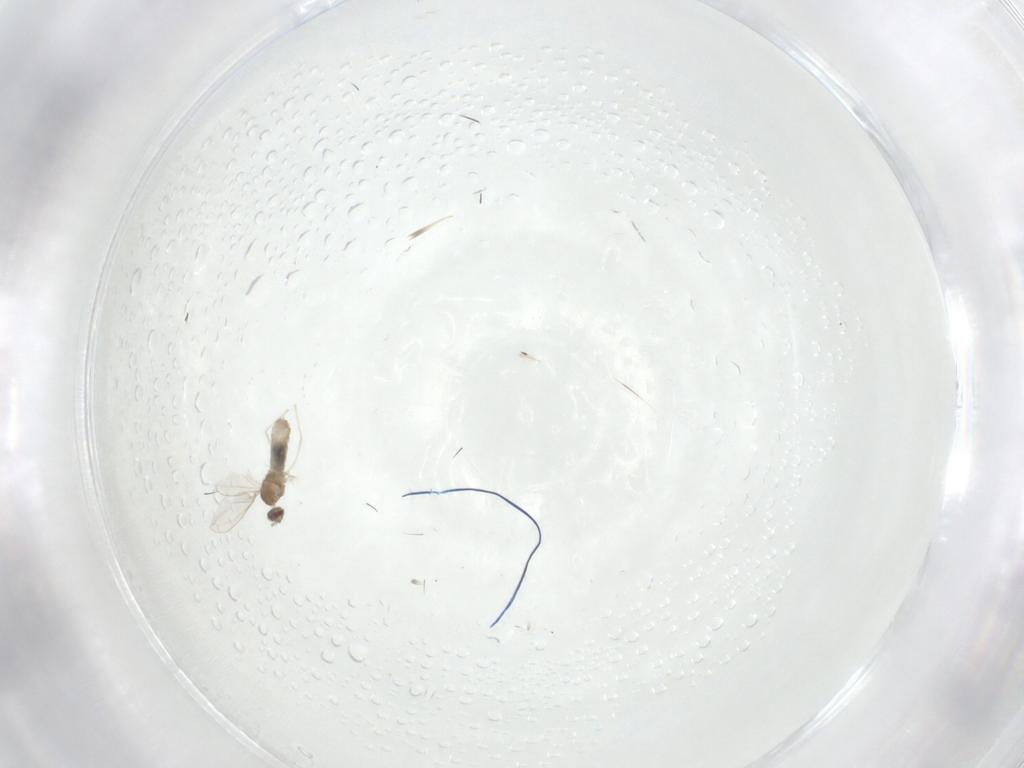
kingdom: Animalia
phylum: Arthropoda
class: Insecta
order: Diptera
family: Cecidomyiidae
